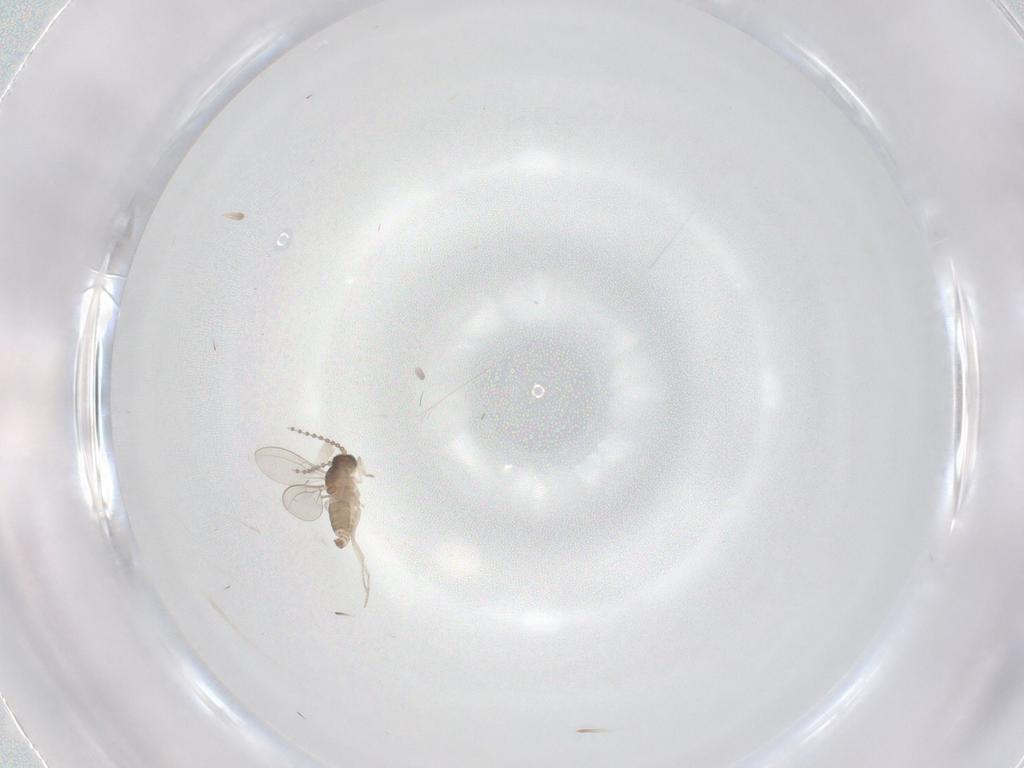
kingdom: Animalia
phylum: Arthropoda
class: Insecta
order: Diptera
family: Cecidomyiidae
